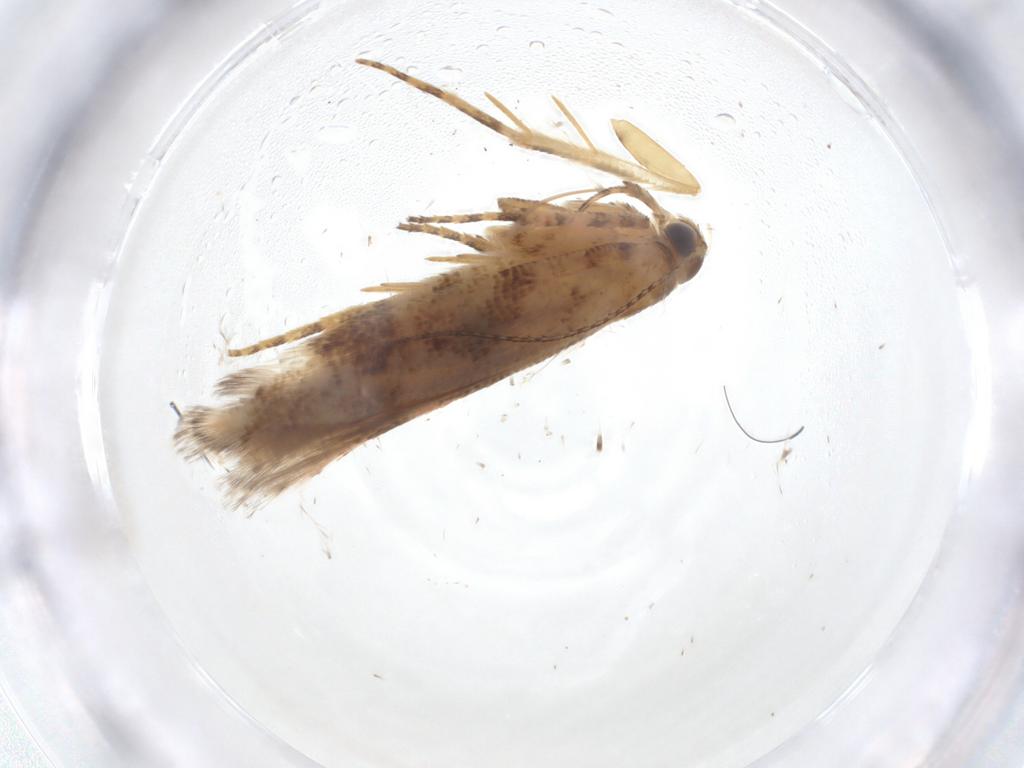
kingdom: Animalia
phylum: Arthropoda
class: Insecta
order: Lepidoptera
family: Gelechiidae
